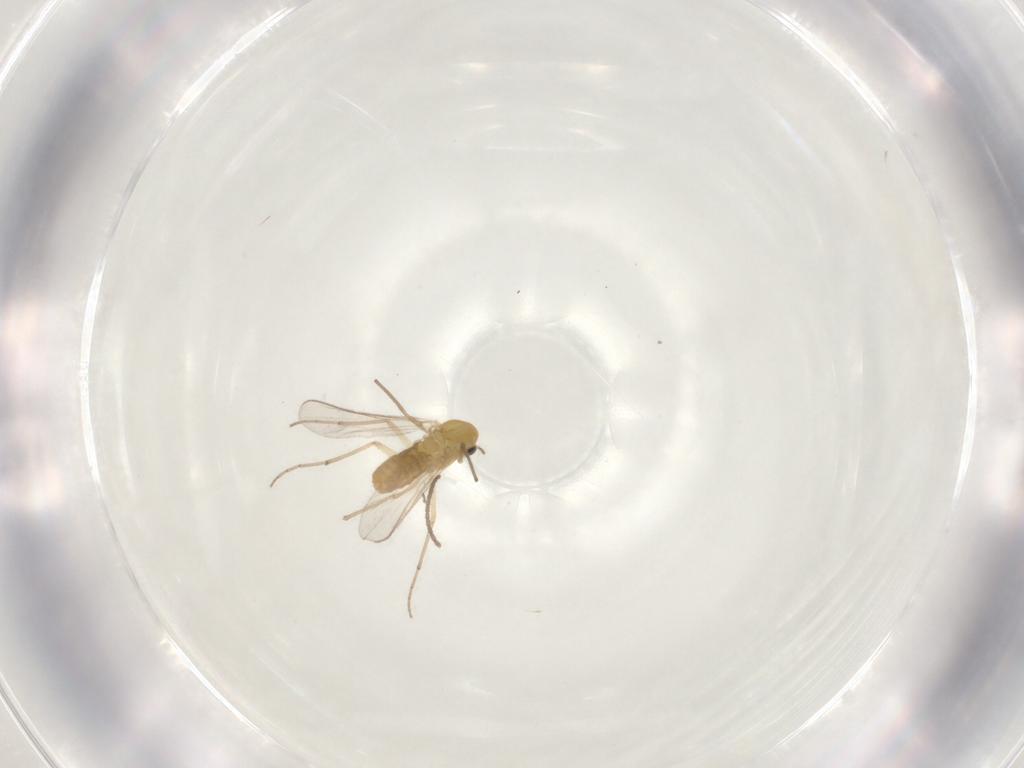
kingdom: Animalia
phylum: Arthropoda
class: Insecta
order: Diptera
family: Chironomidae
